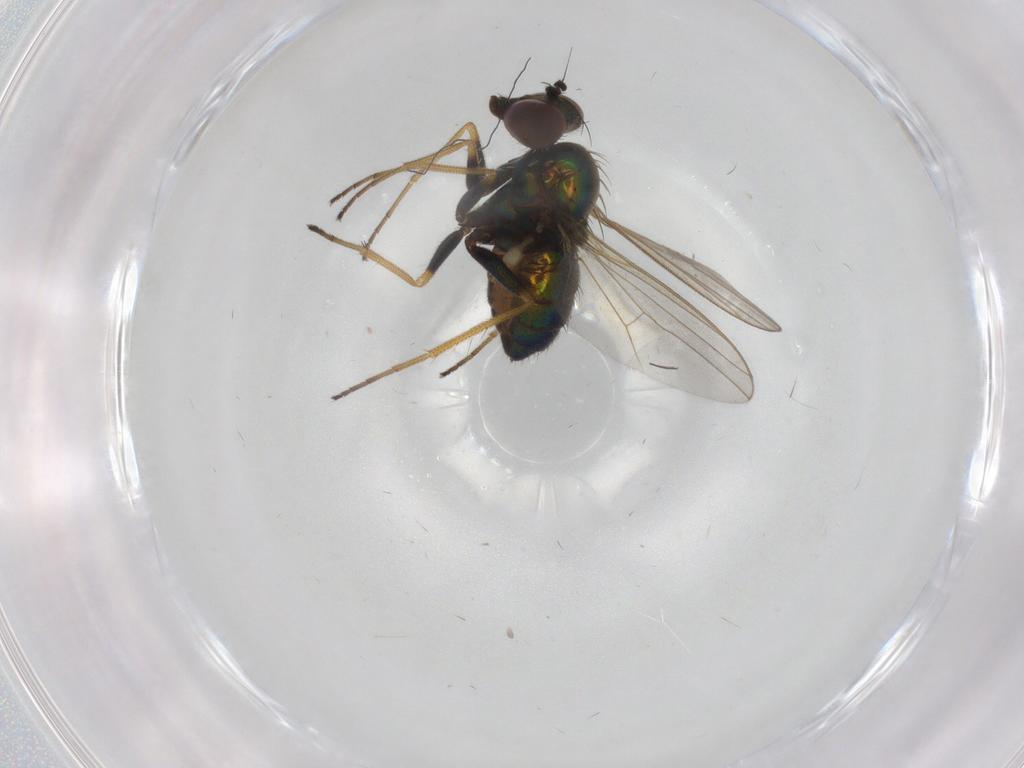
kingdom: Animalia
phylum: Arthropoda
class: Insecta
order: Diptera
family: Dolichopodidae
